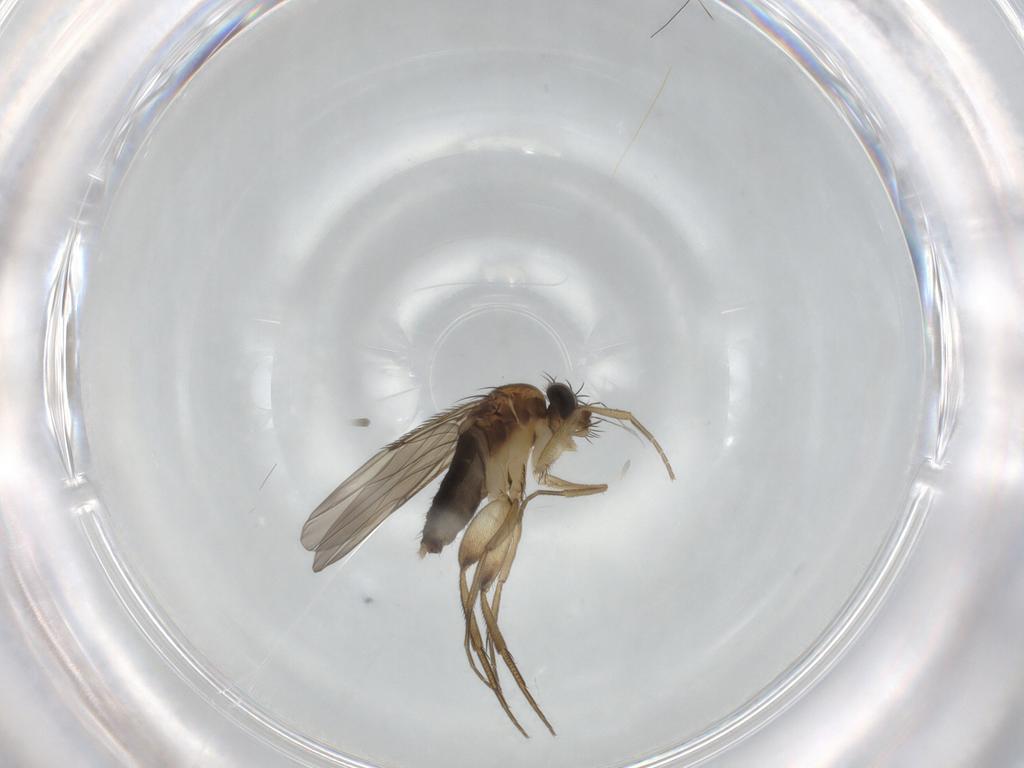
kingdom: Animalia
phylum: Arthropoda
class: Insecta
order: Diptera
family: Phoridae
